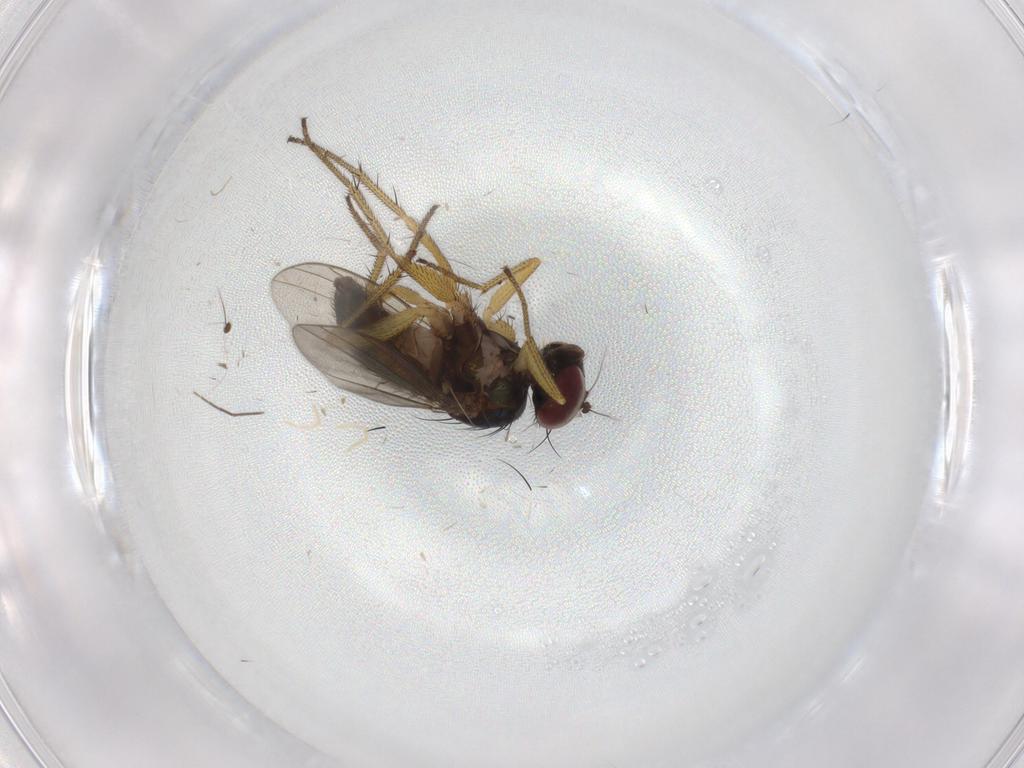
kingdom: Animalia
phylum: Arthropoda
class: Insecta
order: Diptera
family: Dolichopodidae
